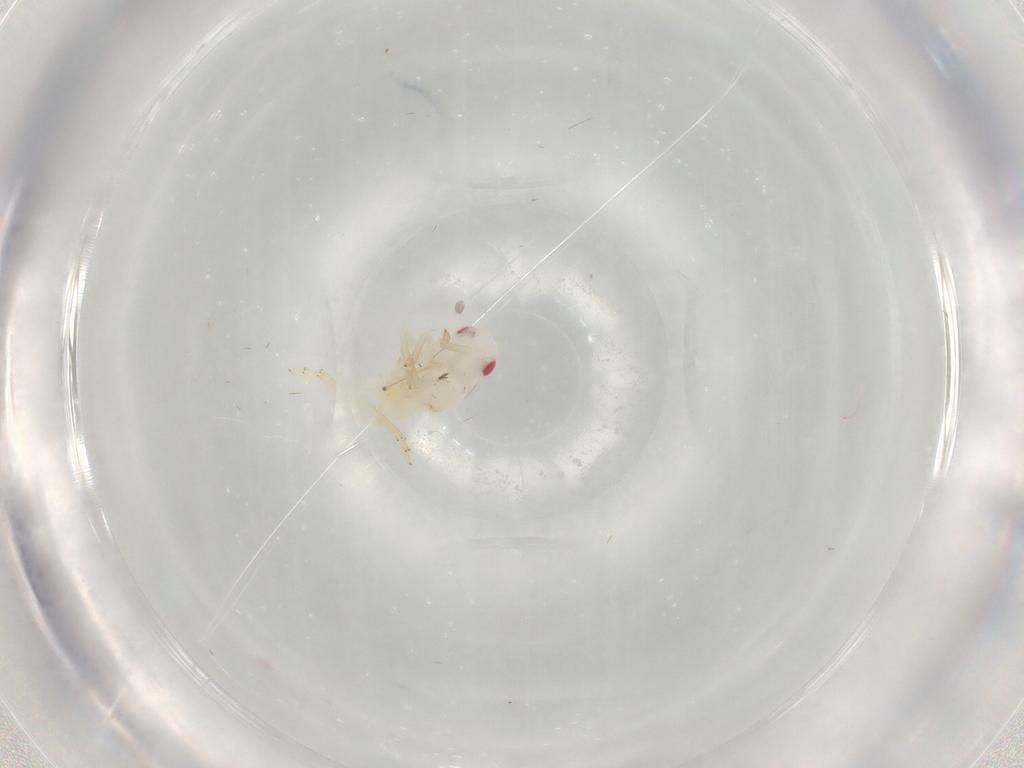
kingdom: Animalia
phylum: Arthropoda
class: Insecta
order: Hemiptera
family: Tropiduchidae
